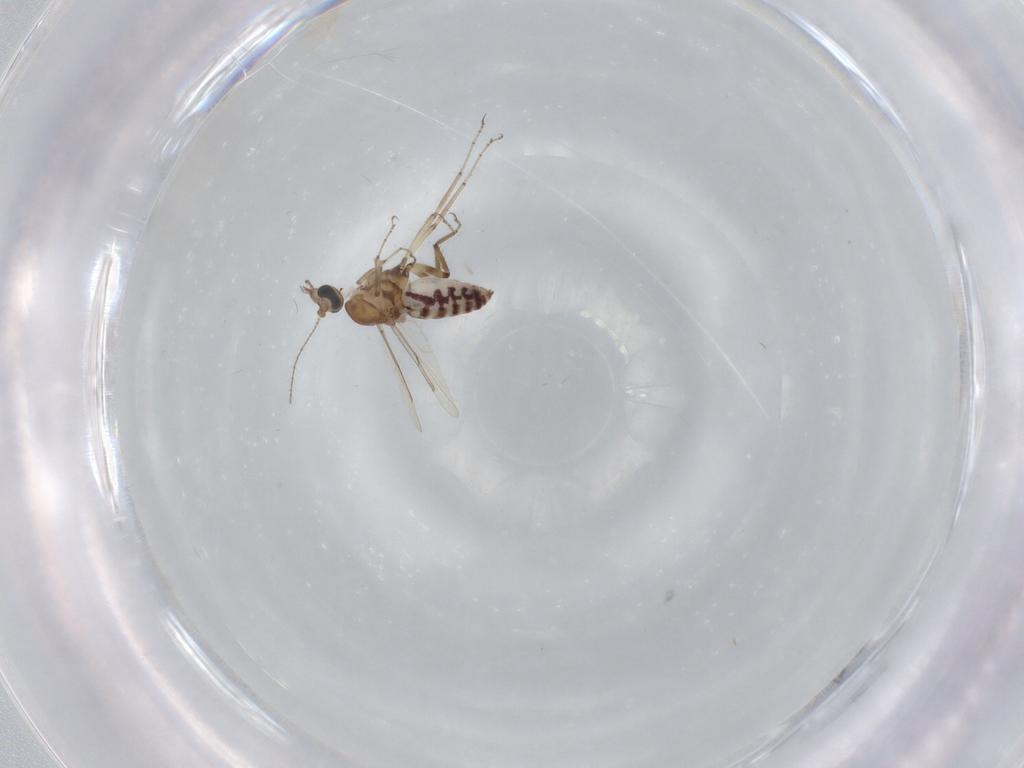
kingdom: Animalia
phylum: Arthropoda
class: Insecta
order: Diptera
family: Ceratopogonidae
